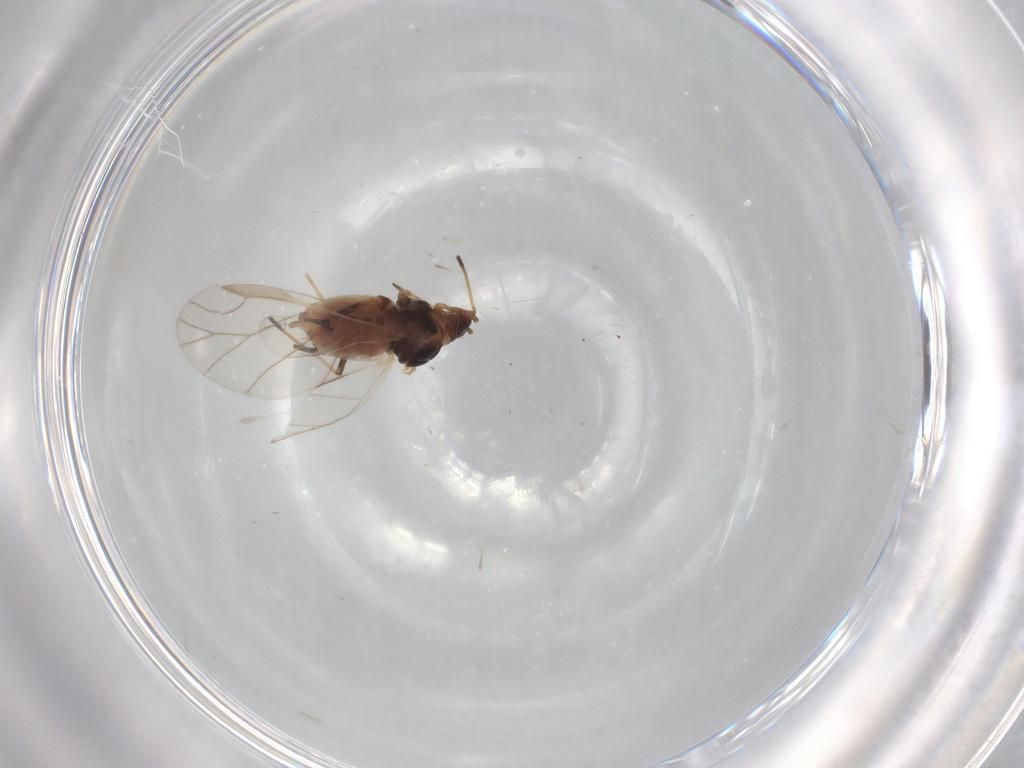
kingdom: Animalia
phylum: Arthropoda
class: Insecta
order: Hemiptera
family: Aphididae
